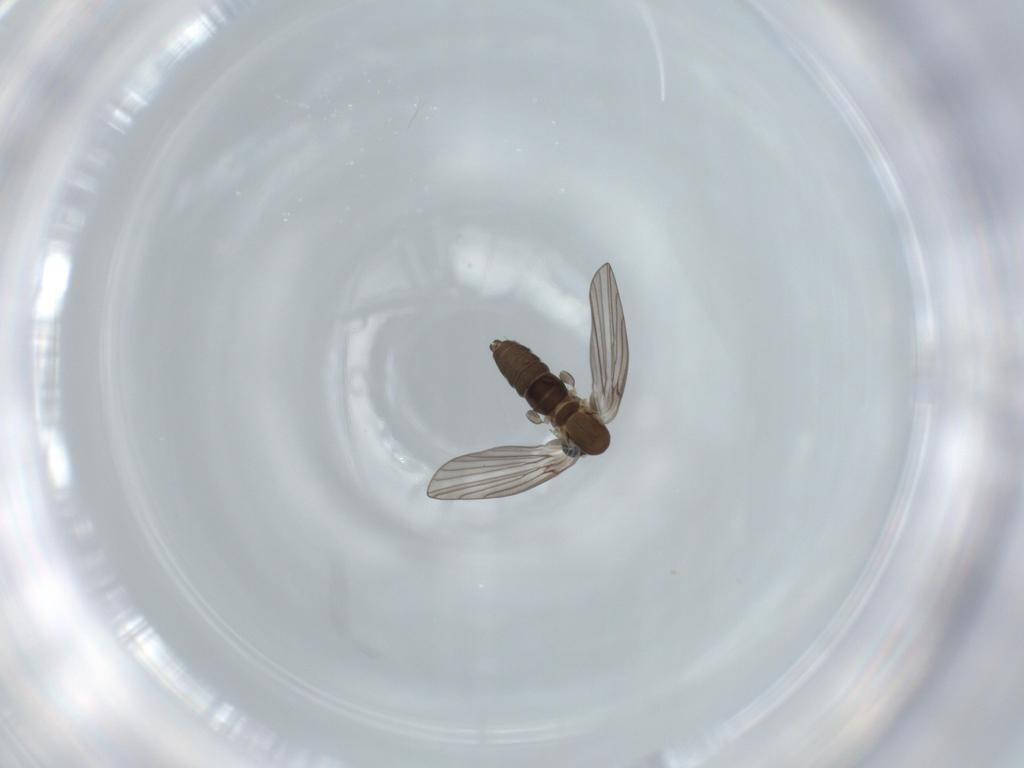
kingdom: Animalia
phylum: Arthropoda
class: Insecta
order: Diptera
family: Psychodidae
